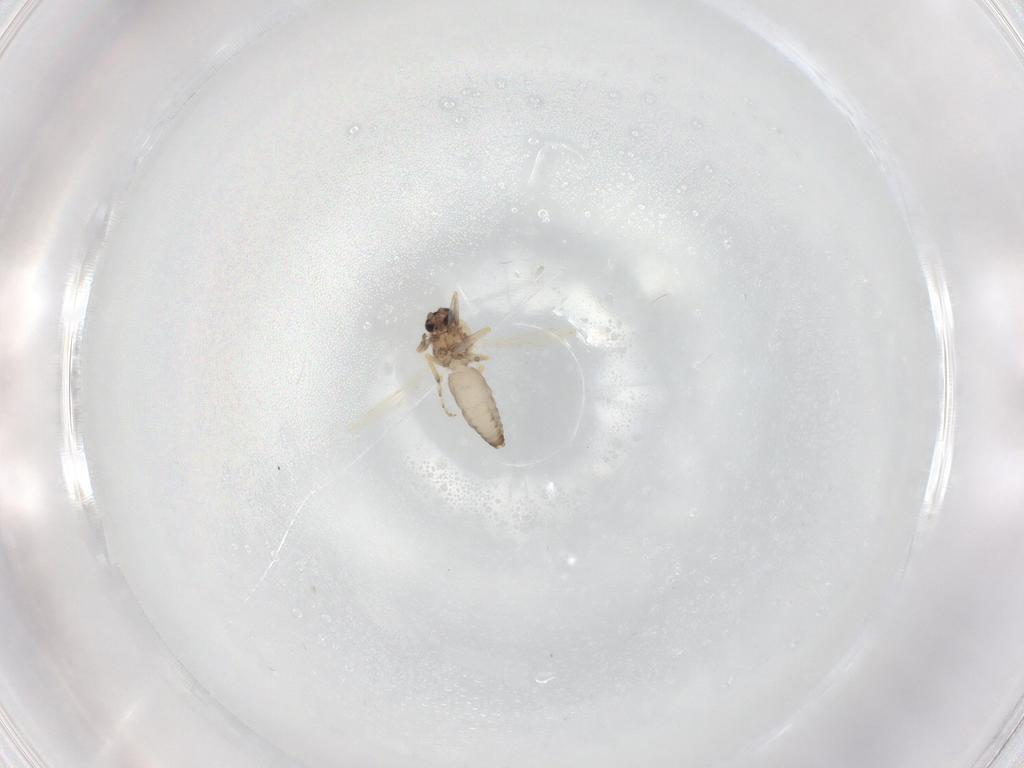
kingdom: Animalia
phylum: Arthropoda
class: Insecta
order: Diptera
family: Ceratopogonidae
